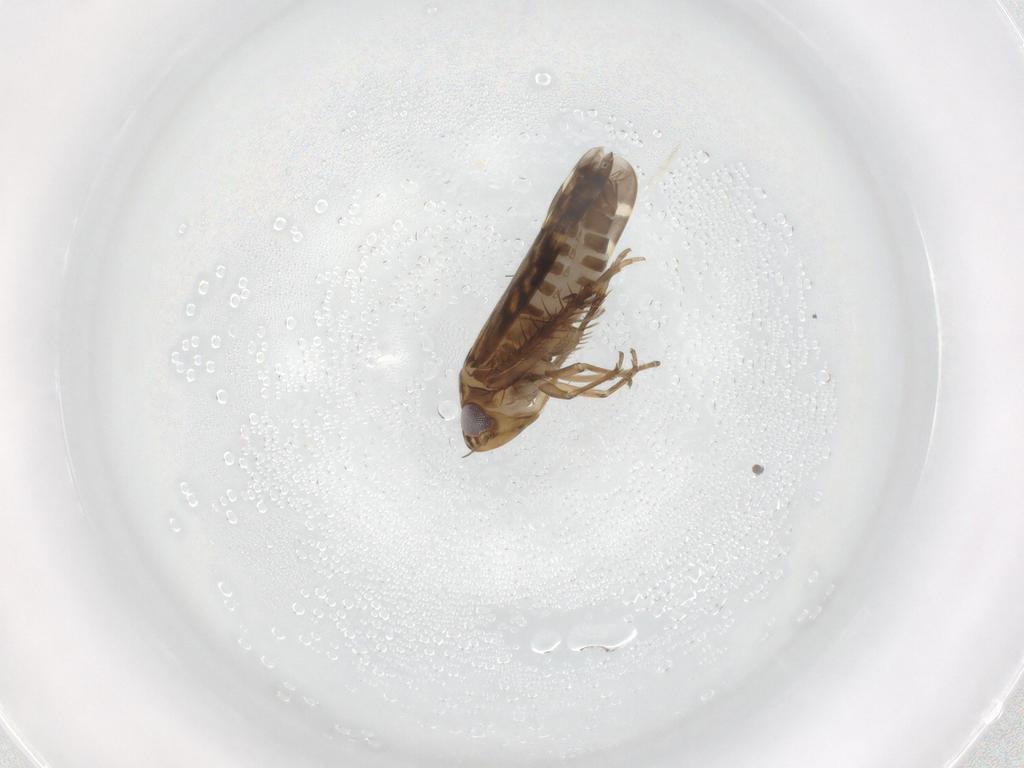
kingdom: Animalia
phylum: Arthropoda
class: Insecta
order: Hemiptera
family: Cicadellidae
